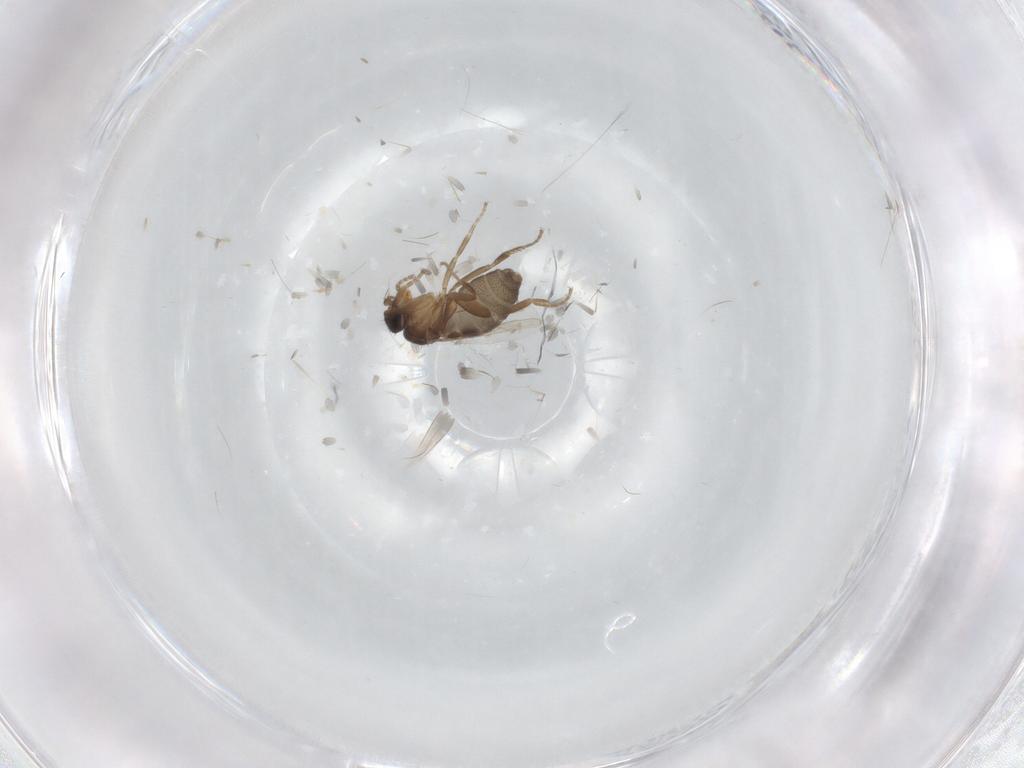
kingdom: Animalia
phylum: Arthropoda
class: Insecta
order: Diptera
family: Phoridae
